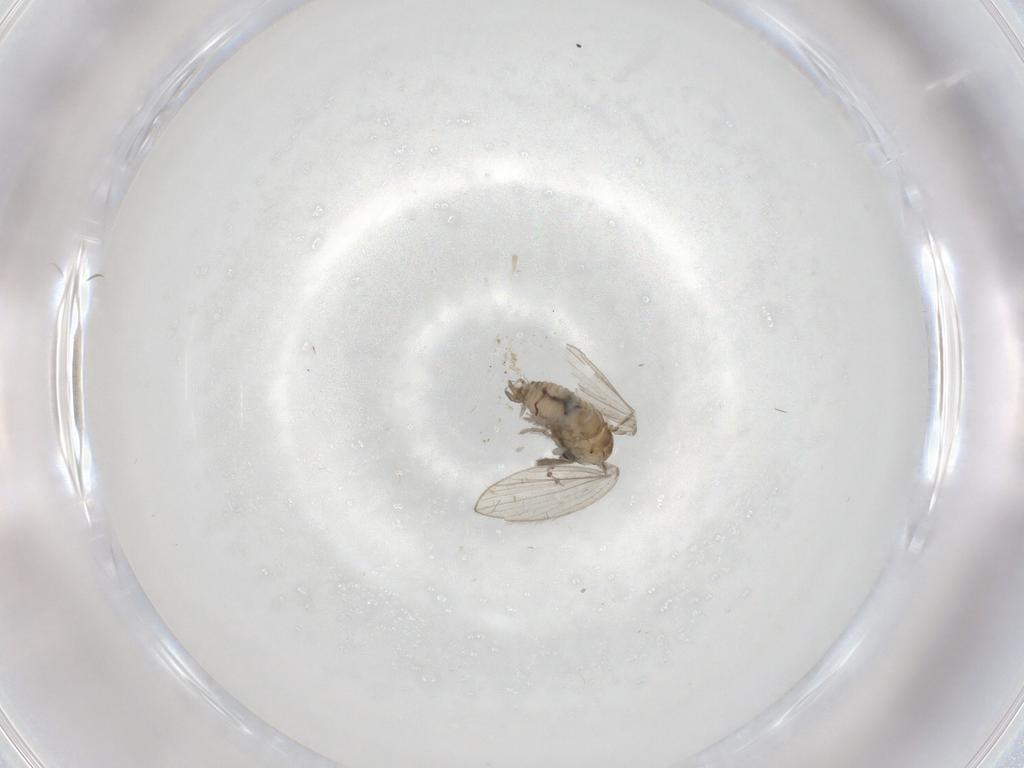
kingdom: Animalia
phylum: Arthropoda
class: Insecta
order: Diptera
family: Psychodidae
